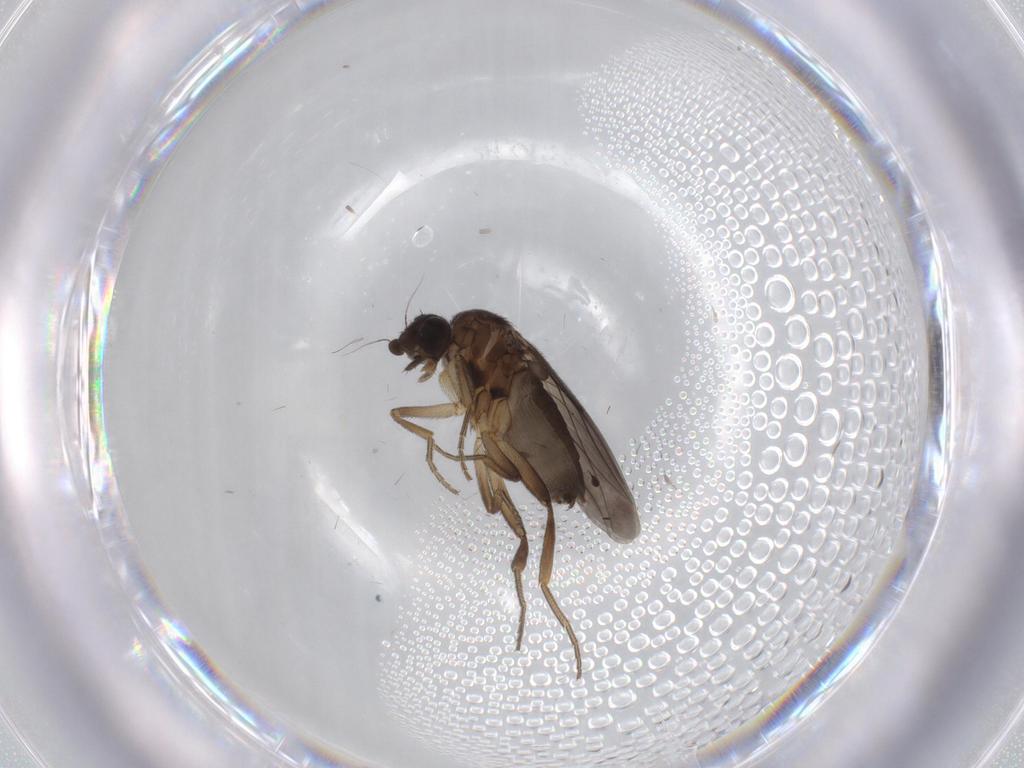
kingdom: Animalia
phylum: Arthropoda
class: Insecta
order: Diptera
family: Phoridae
